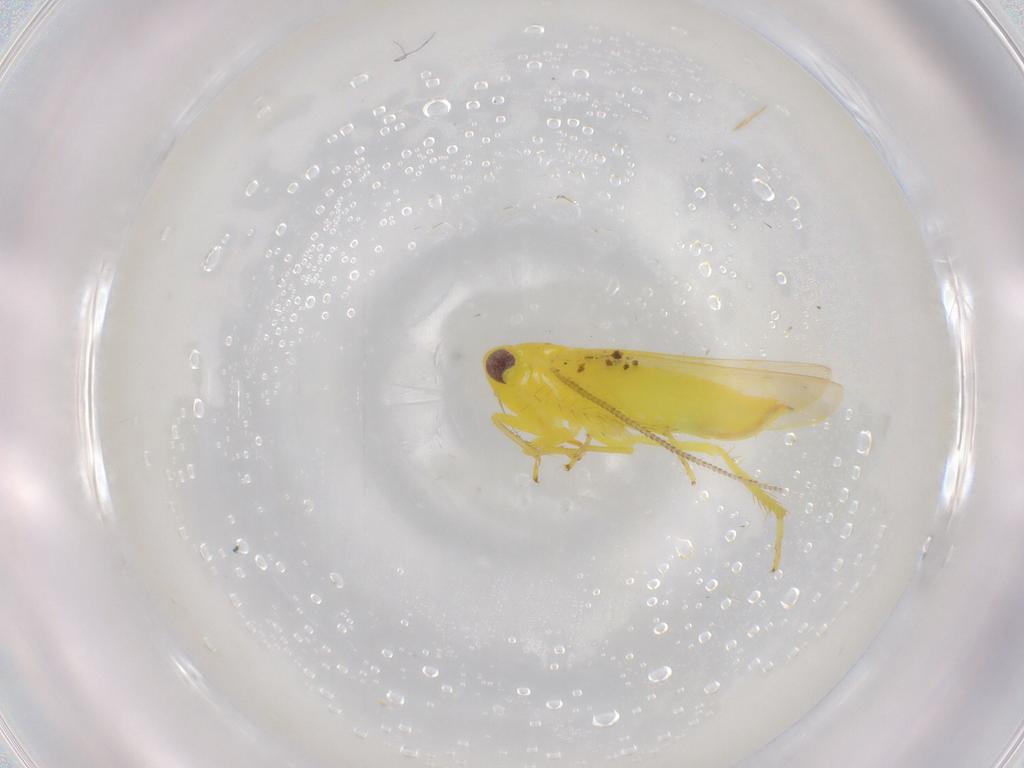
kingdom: Animalia
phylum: Arthropoda
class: Insecta
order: Hemiptera
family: Cicadellidae
